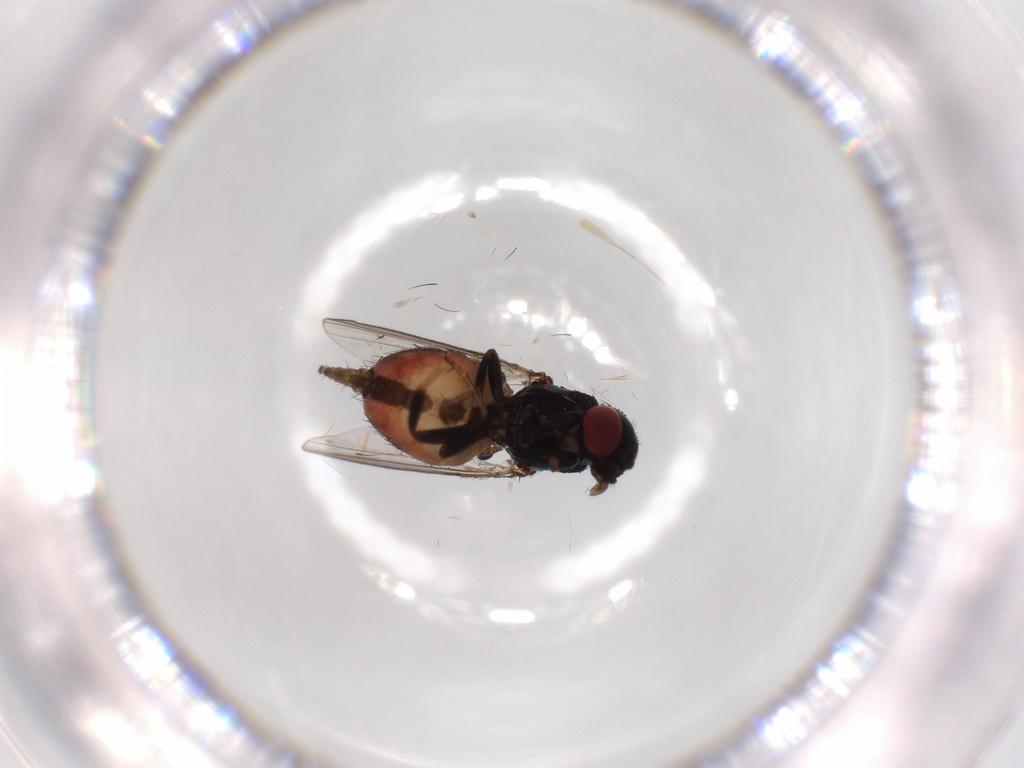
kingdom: Animalia
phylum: Arthropoda
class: Insecta
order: Diptera
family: Milichiidae
